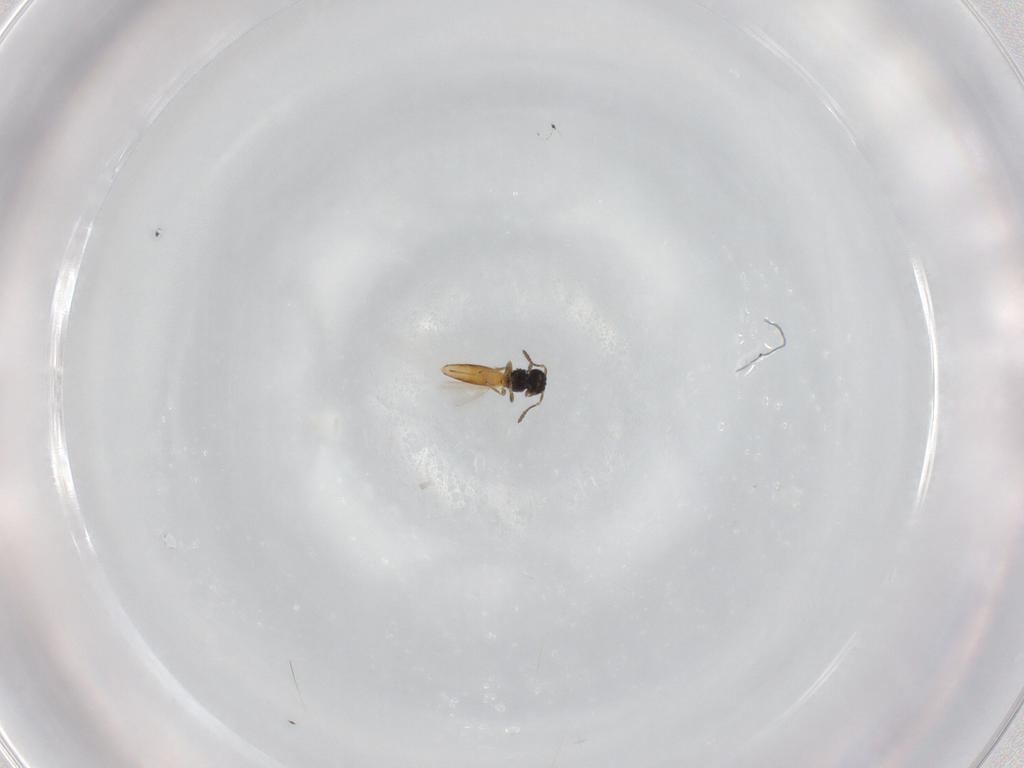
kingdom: Animalia
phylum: Arthropoda
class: Insecta
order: Hymenoptera
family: Scelionidae
